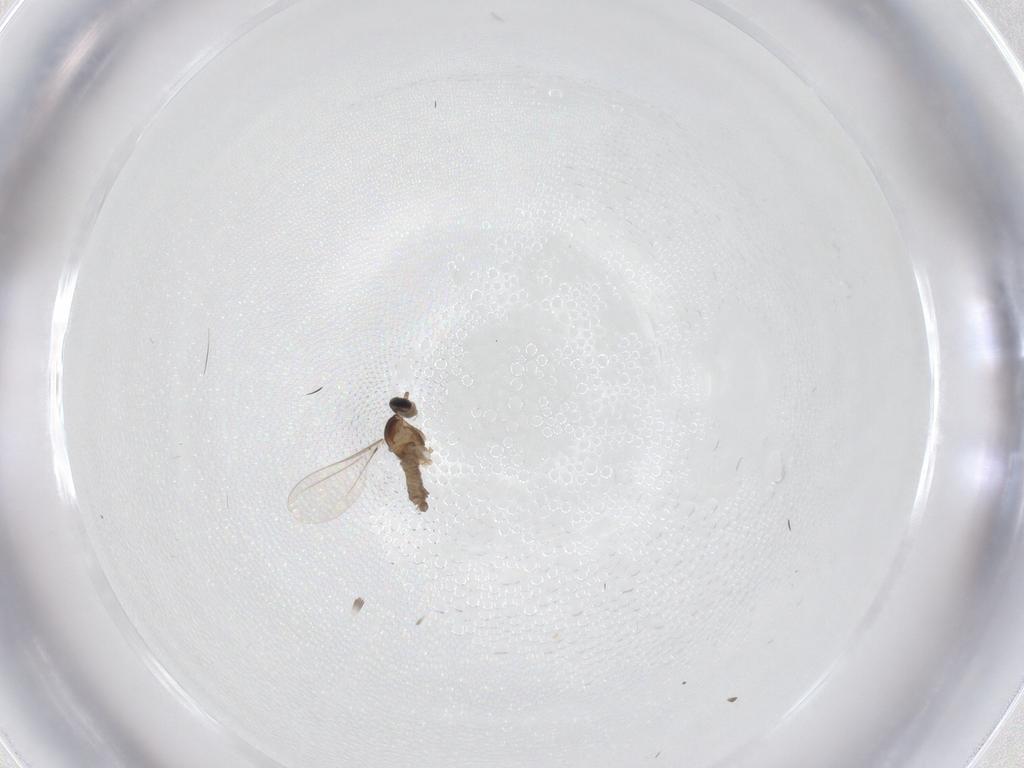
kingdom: Animalia
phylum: Arthropoda
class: Insecta
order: Diptera
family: Cecidomyiidae
